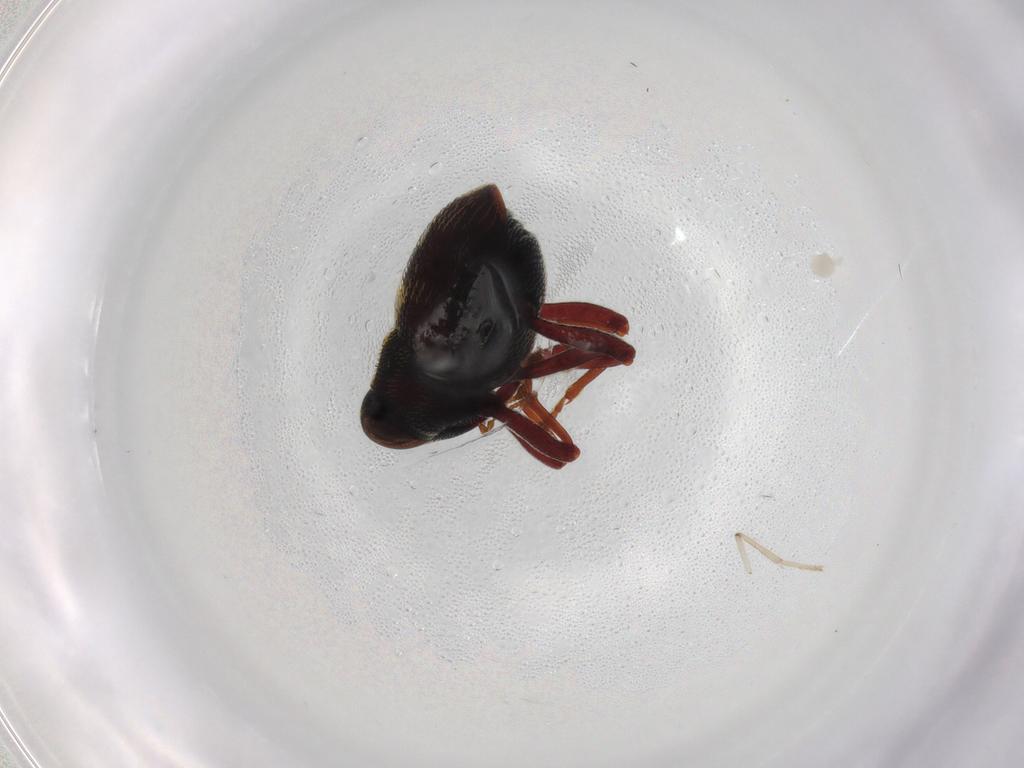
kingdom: Animalia
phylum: Arthropoda
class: Insecta
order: Coleoptera
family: Curculionidae
